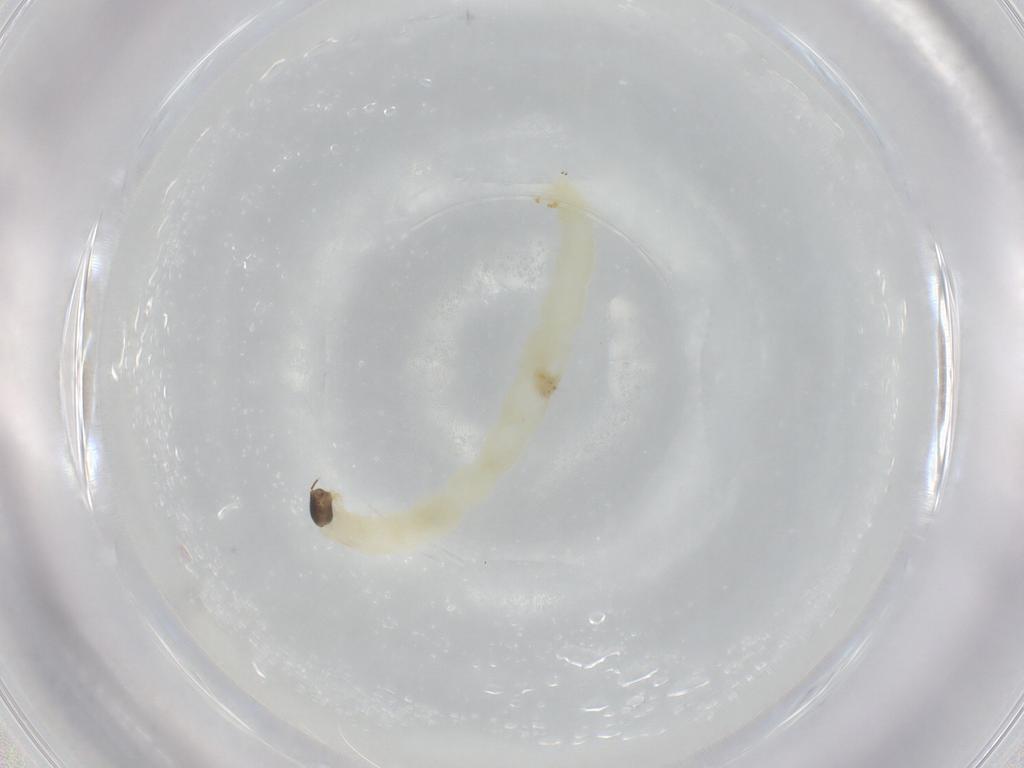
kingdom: Animalia
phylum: Arthropoda
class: Insecta
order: Diptera
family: Chironomidae
